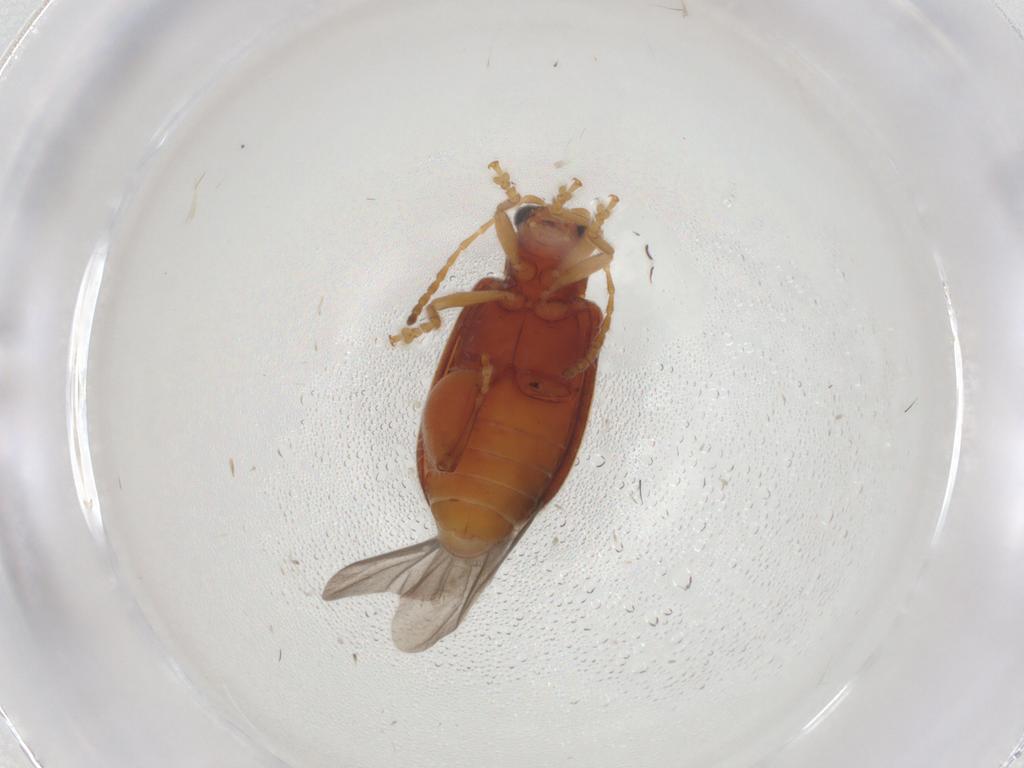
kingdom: Animalia
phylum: Arthropoda
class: Insecta
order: Coleoptera
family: Chrysomelidae
